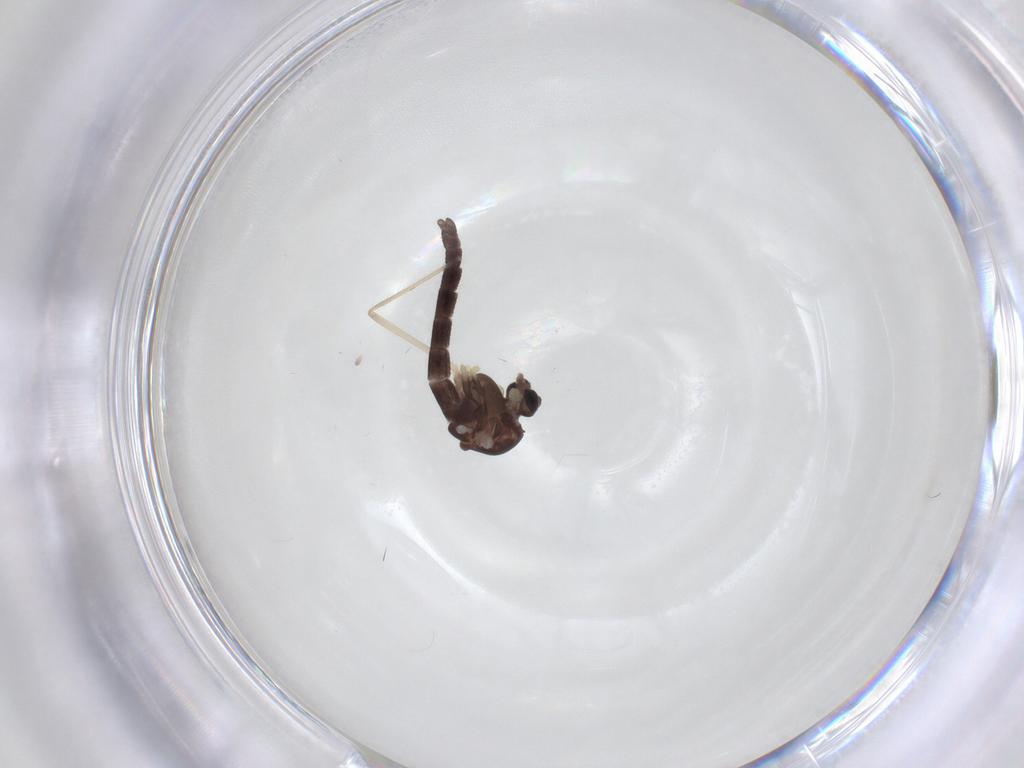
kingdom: Animalia
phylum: Arthropoda
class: Insecta
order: Diptera
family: Chironomidae
